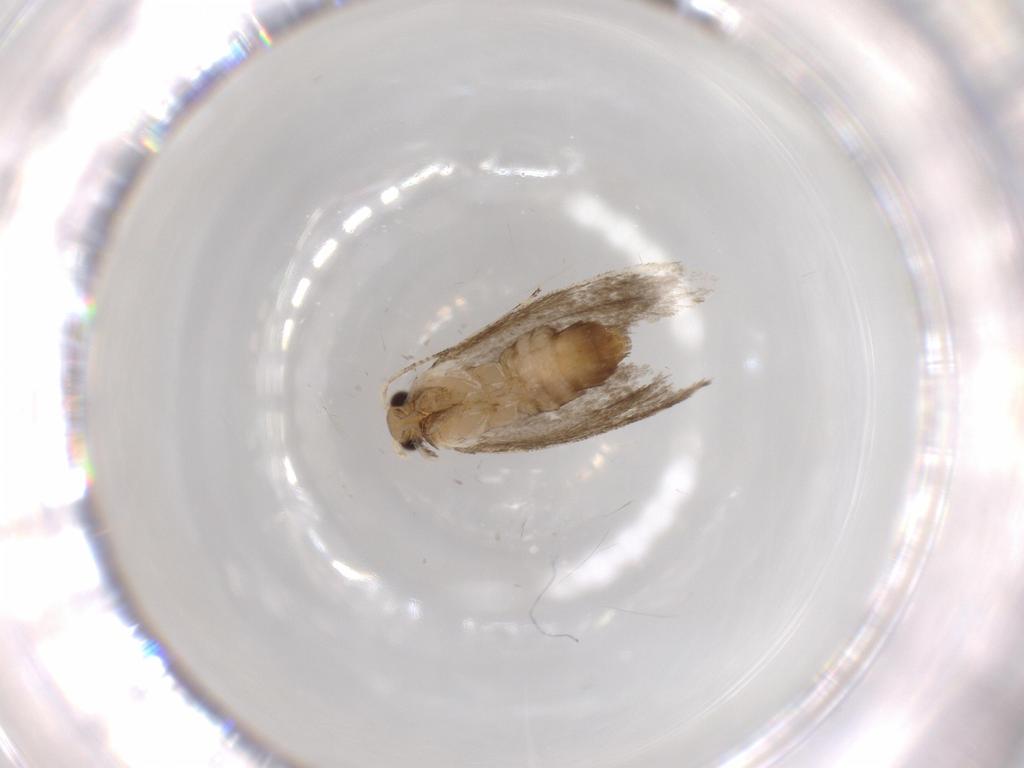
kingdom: Animalia
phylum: Arthropoda
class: Insecta
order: Lepidoptera
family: Tineidae
